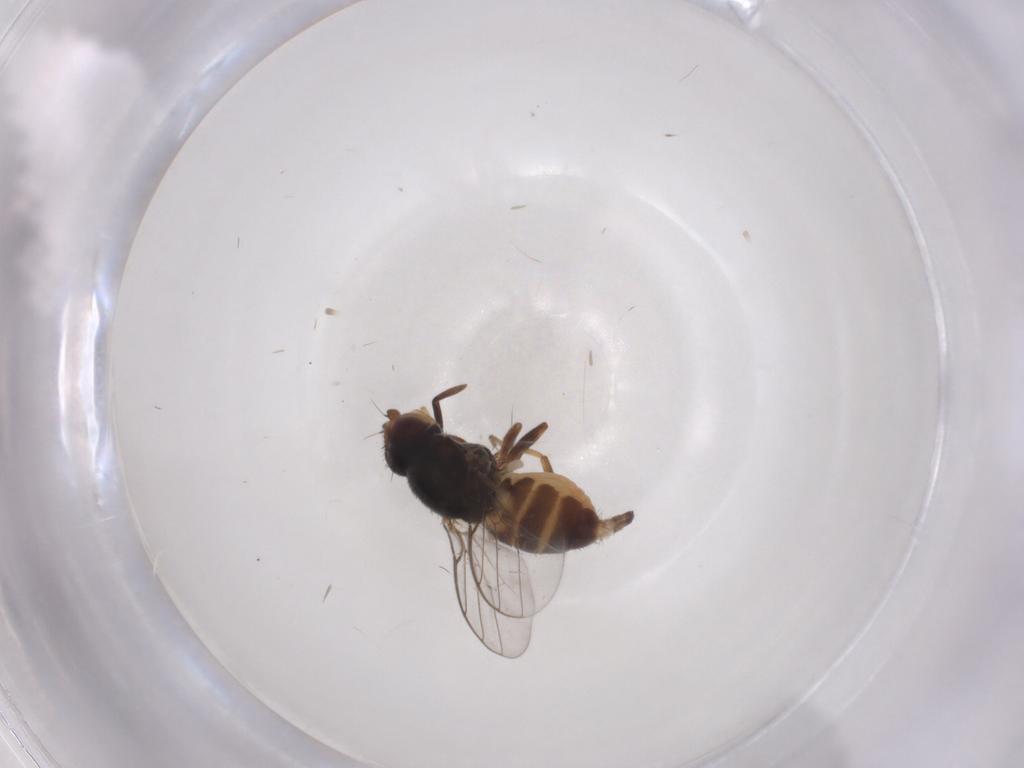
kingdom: Animalia
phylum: Arthropoda
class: Insecta
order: Diptera
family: Chloropidae
